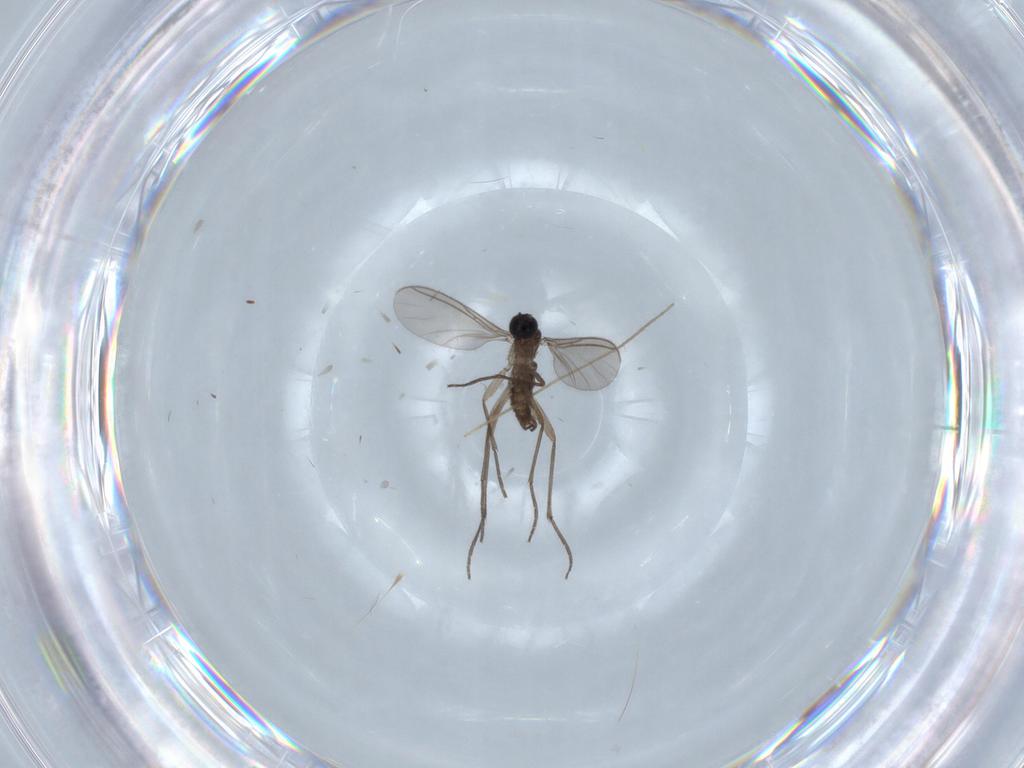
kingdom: Animalia
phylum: Arthropoda
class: Insecta
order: Diptera
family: Sciaridae
